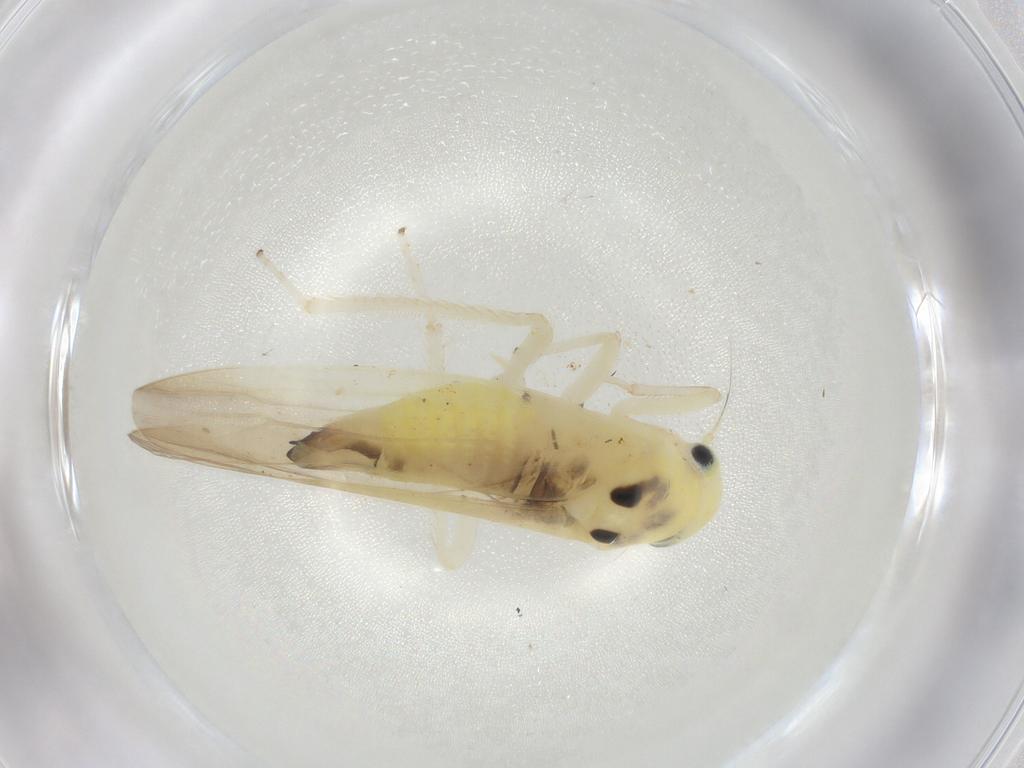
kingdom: Animalia
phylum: Arthropoda
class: Insecta
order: Hemiptera
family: Cicadellidae
